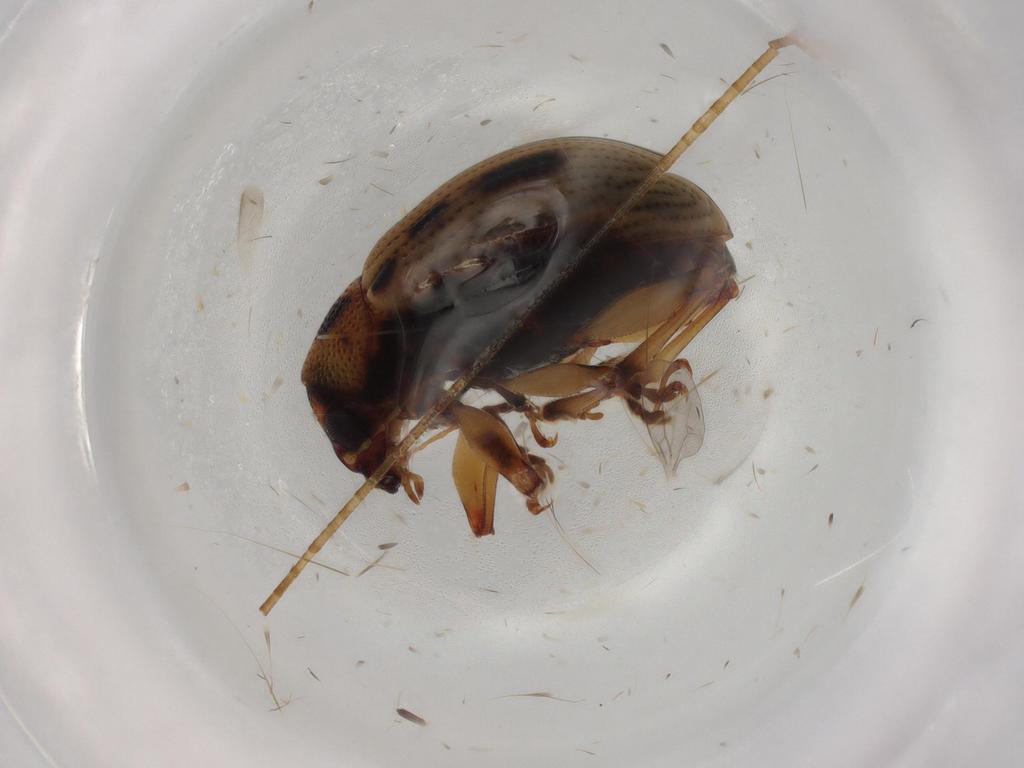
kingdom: Animalia
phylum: Arthropoda
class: Insecta
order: Coleoptera
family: Chrysomelidae
